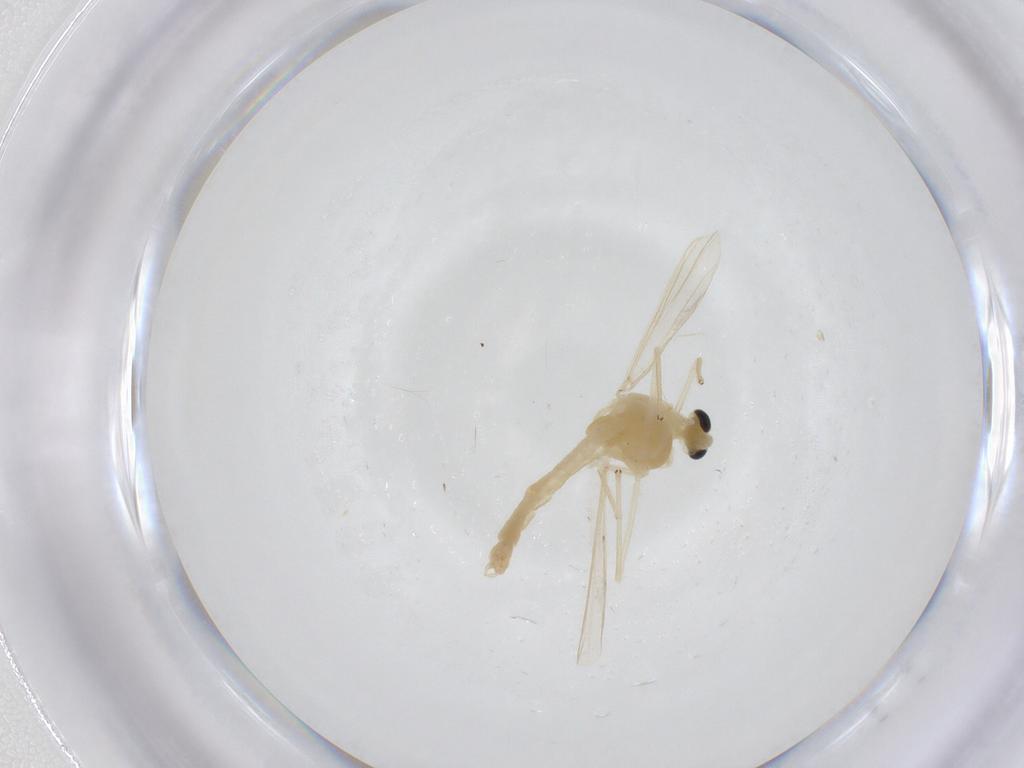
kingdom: Animalia
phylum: Arthropoda
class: Insecta
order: Diptera
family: Chironomidae
